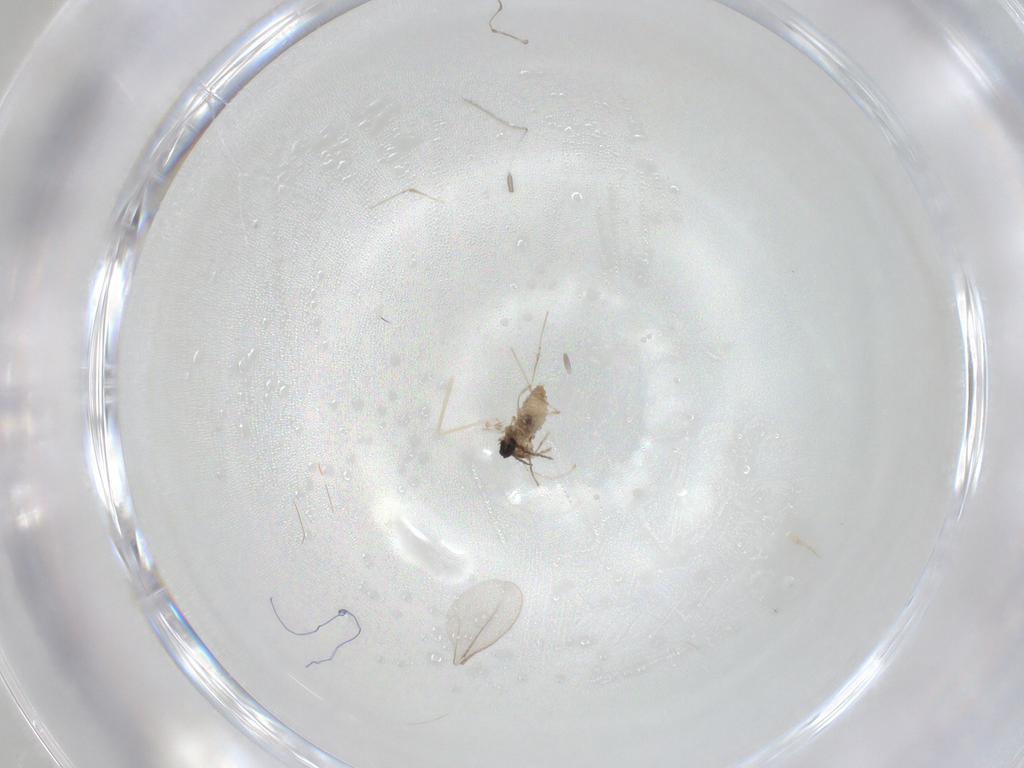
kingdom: Animalia
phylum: Arthropoda
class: Insecta
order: Diptera
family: Cecidomyiidae
